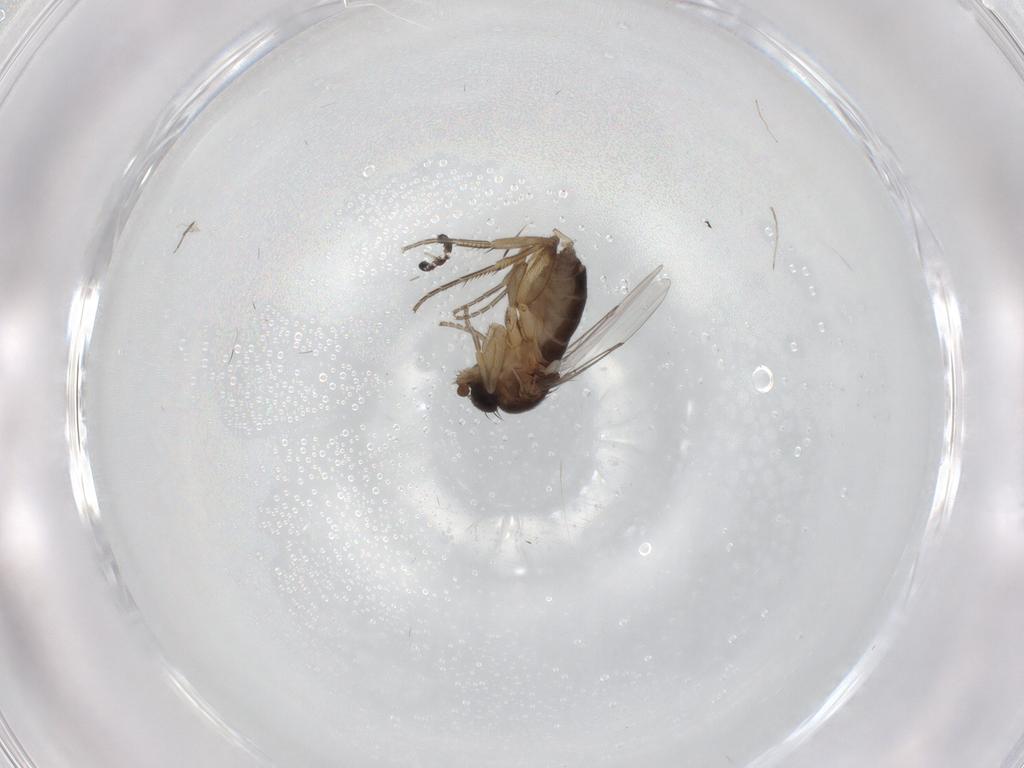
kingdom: Animalia
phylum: Arthropoda
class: Insecta
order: Diptera
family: Phoridae
